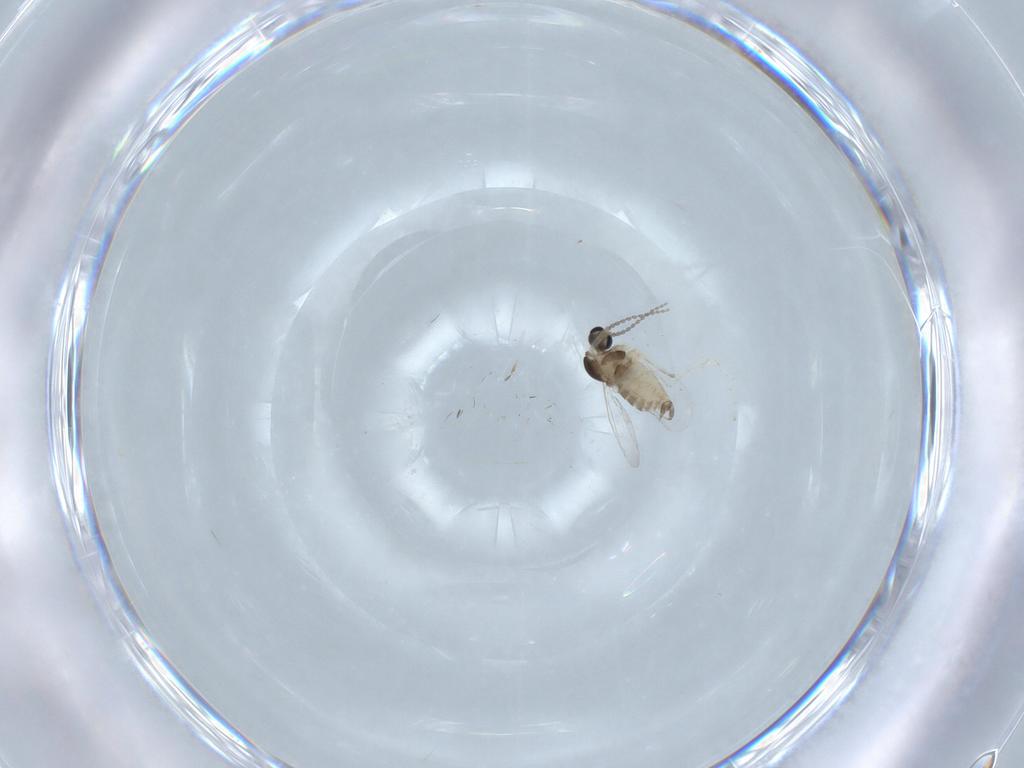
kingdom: Animalia
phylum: Arthropoda
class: Insecta
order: Diptera
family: Cecidomyiidae
